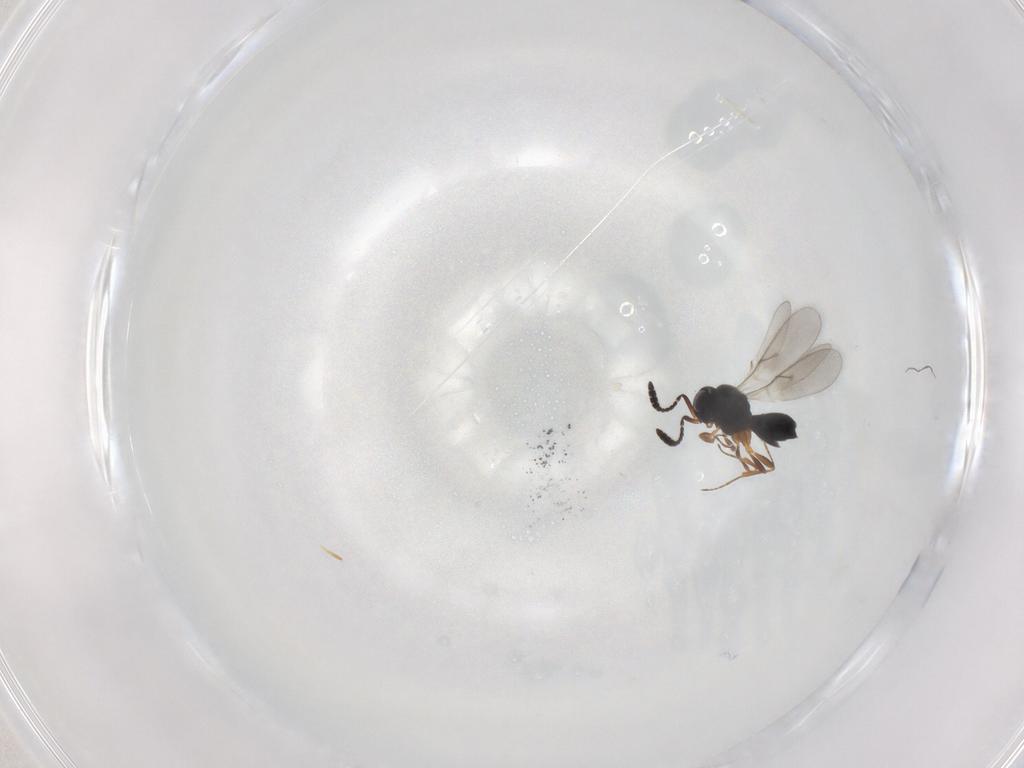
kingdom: Animalia
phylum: Arthropoda
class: Insecta
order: Hymenoptera
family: Scelionidae
